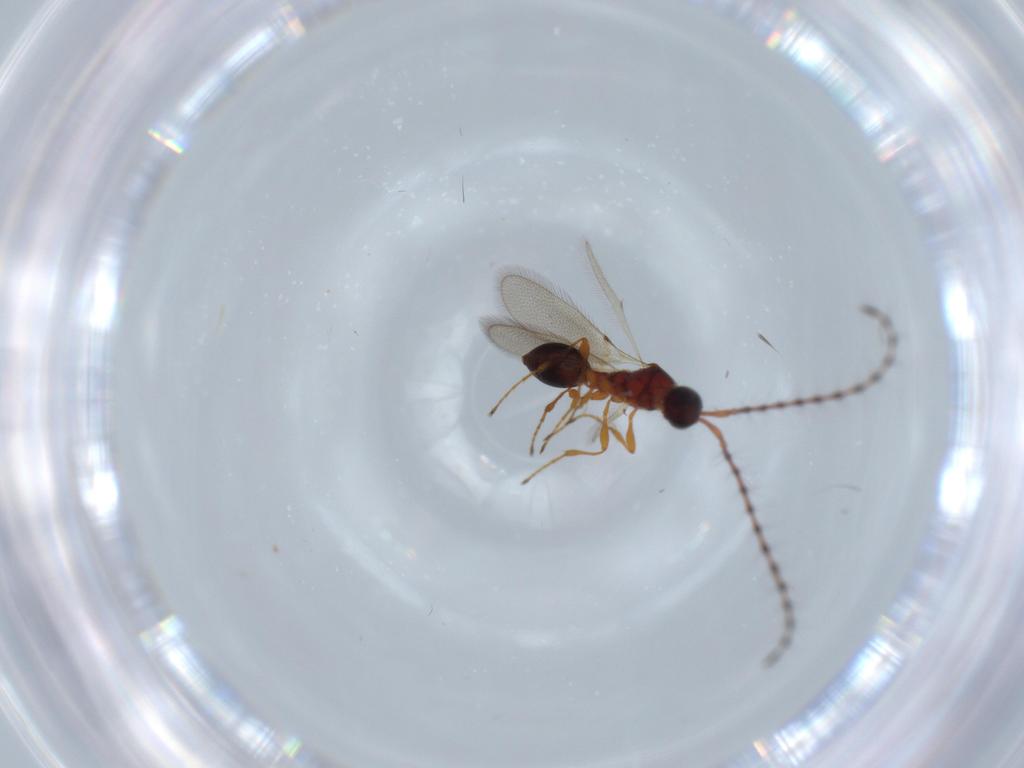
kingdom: Animalia
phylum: Arthropoda
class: Insecta
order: Hymenoptera
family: Diapriidae
